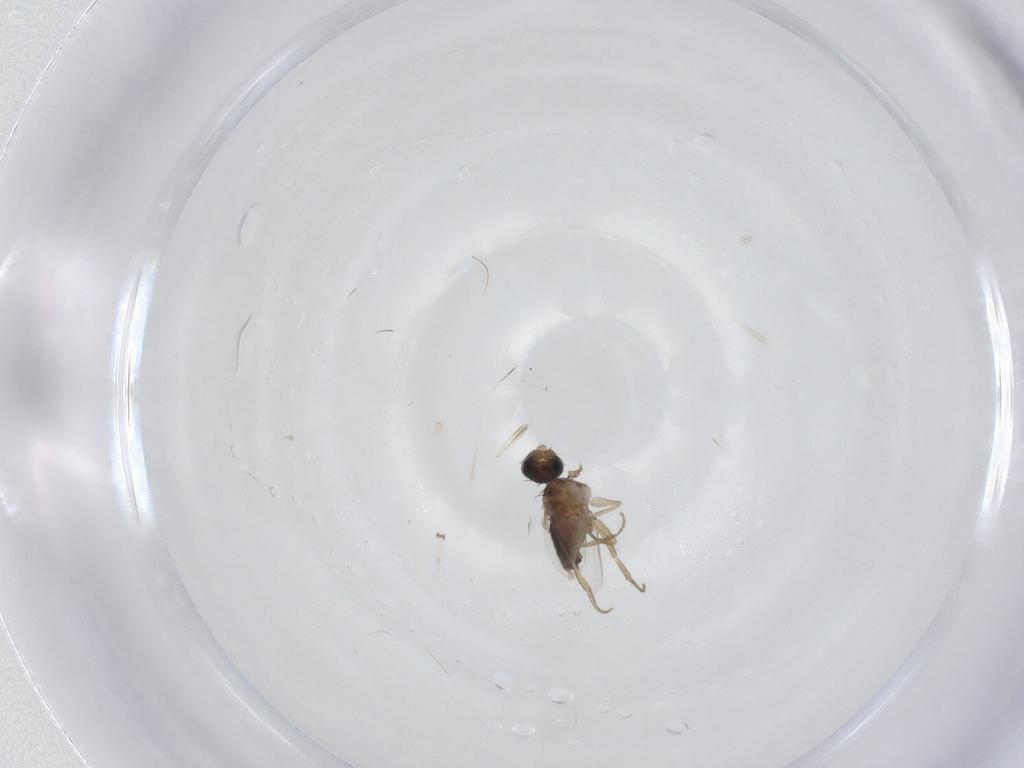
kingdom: Animalia
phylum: Arthropoda
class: Insecta
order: Diptera
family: Phoridae
